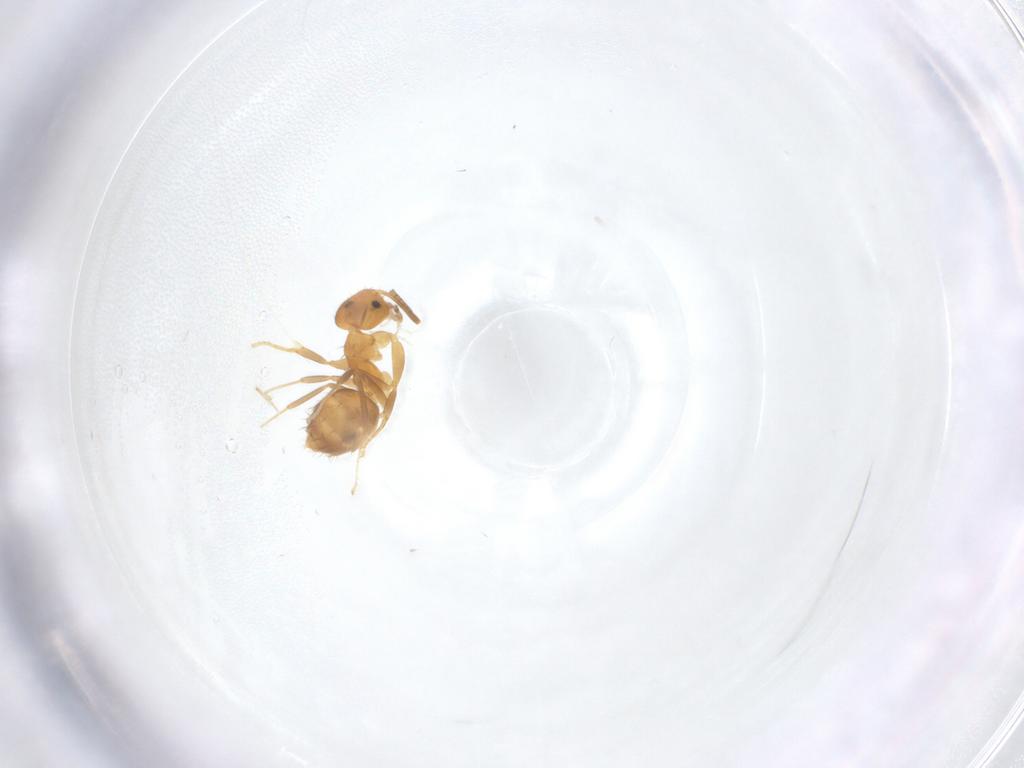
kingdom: Animalia
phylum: Arthropoda
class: Insecta
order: Hymenoptera
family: Formicidae
